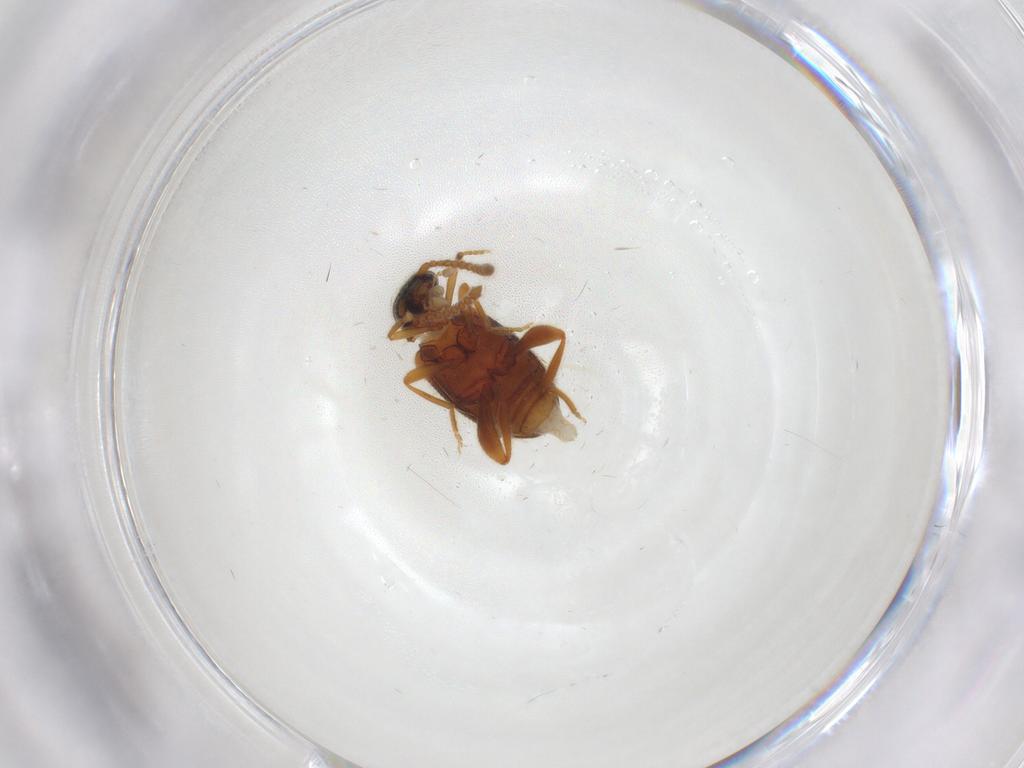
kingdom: Animalia
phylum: Arthropoda
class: Insecta
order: Coleoptera
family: Aderidae
